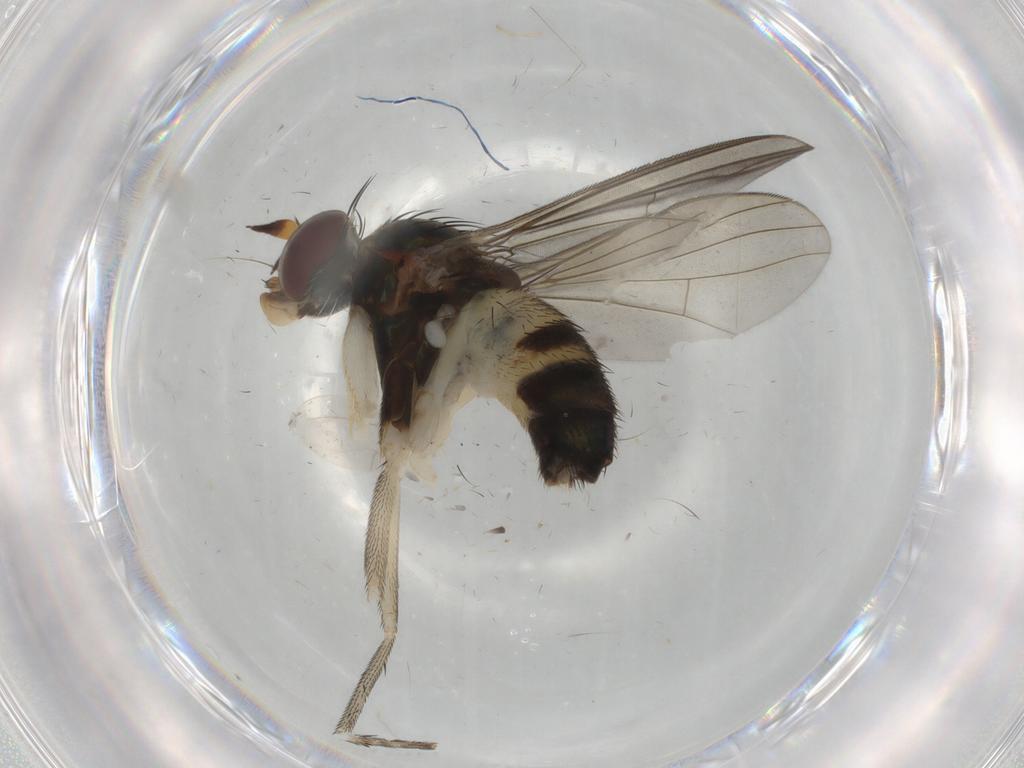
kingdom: Animalia
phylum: Arthropoda
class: Insecta
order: Diptera
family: Dolichopodidae
